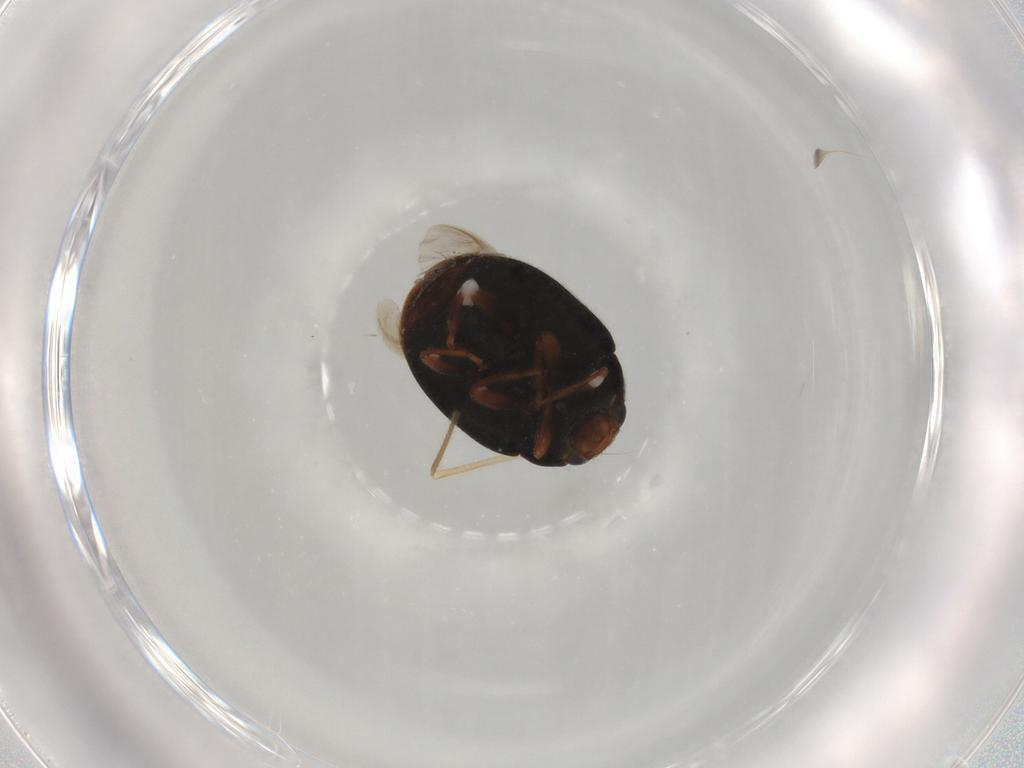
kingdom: Animalia
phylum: Arthropoda
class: Insecta
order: Coleoptera
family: Coccinellidae
